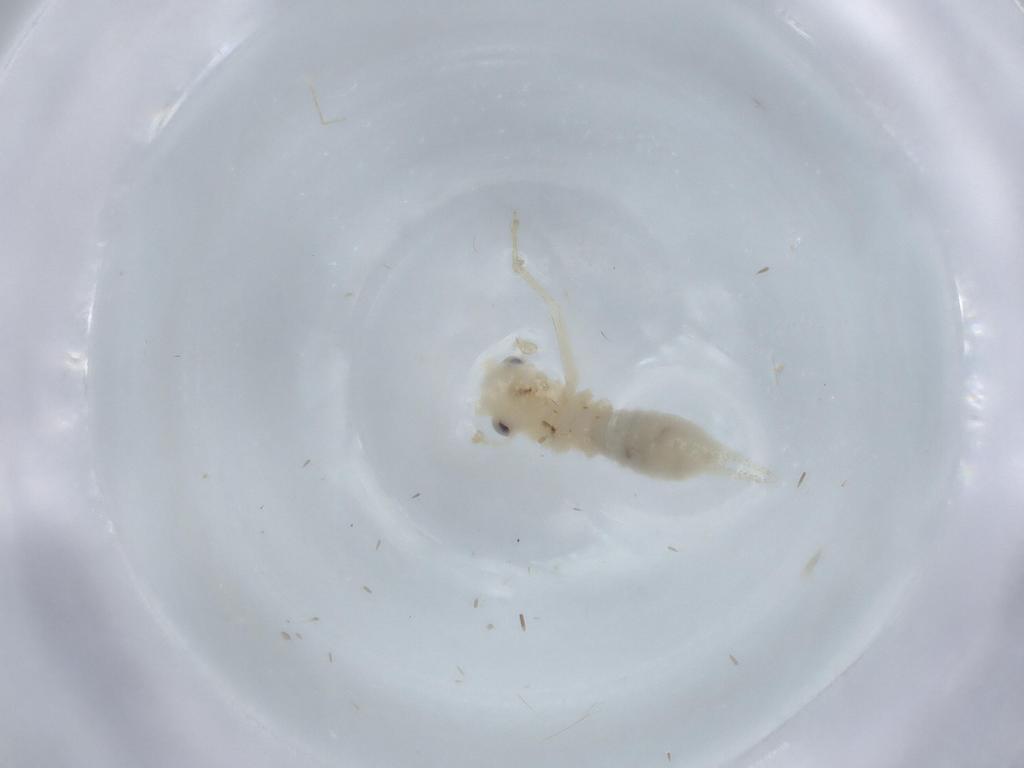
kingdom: Animalia
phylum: Arthropoda
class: Insecta
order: Orthoptera
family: Trigonidiidae
